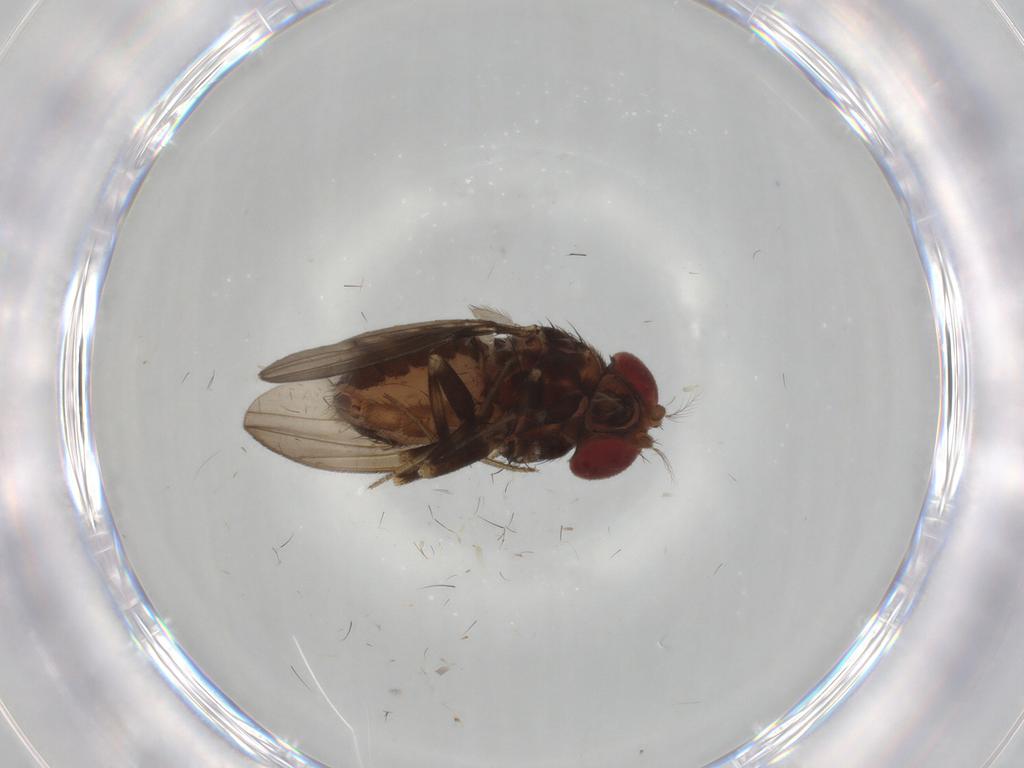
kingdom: Animalia
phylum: Arthropoda
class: Insecta
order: Diptera
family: Drosophilidae
